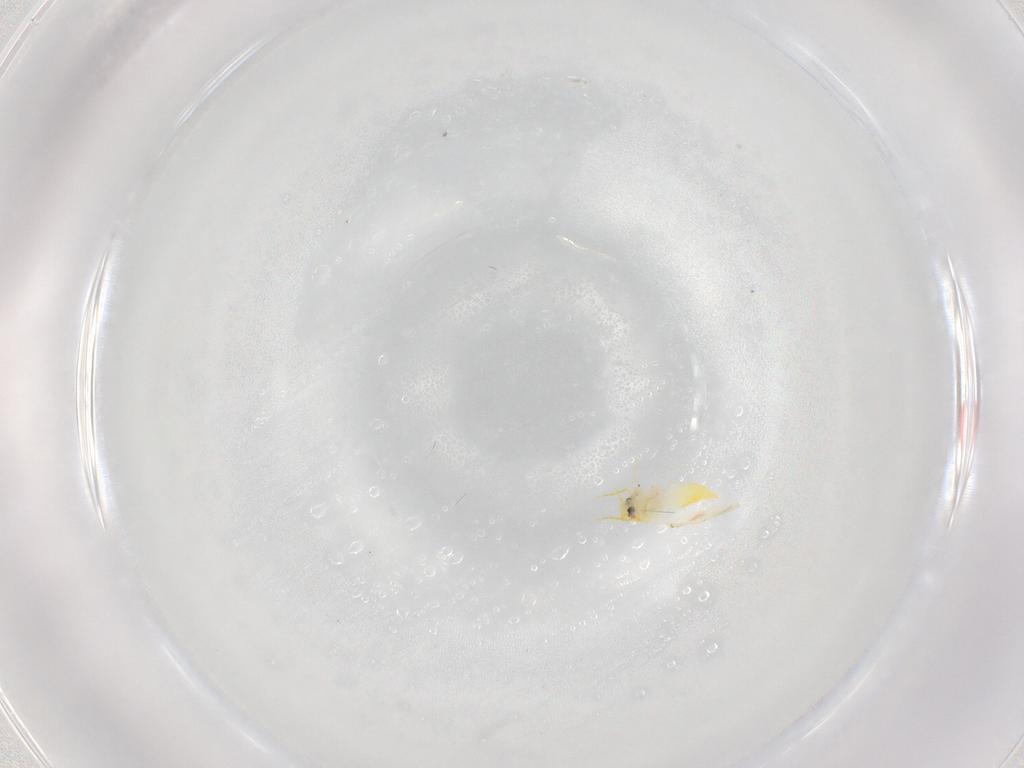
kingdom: Animalia
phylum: Arthropoda
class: Insecta
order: Hemiptera
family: Aleyrodidae
